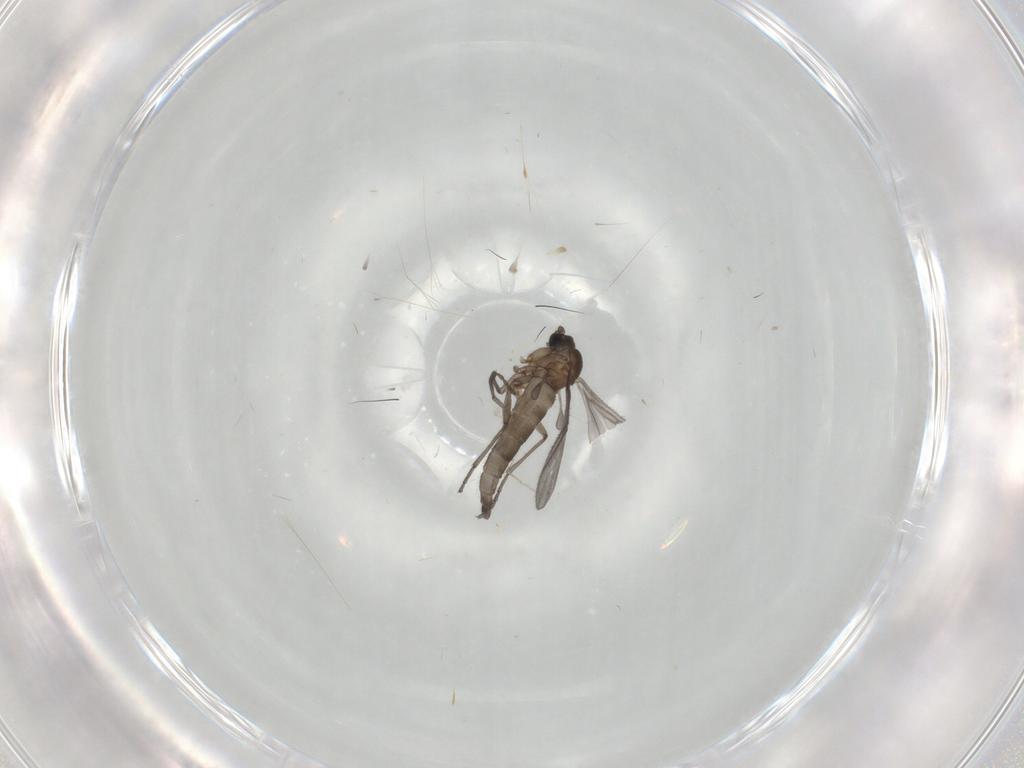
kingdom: Animalia
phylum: Arthropoda
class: Insecta
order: Diptera
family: Sciaridae
